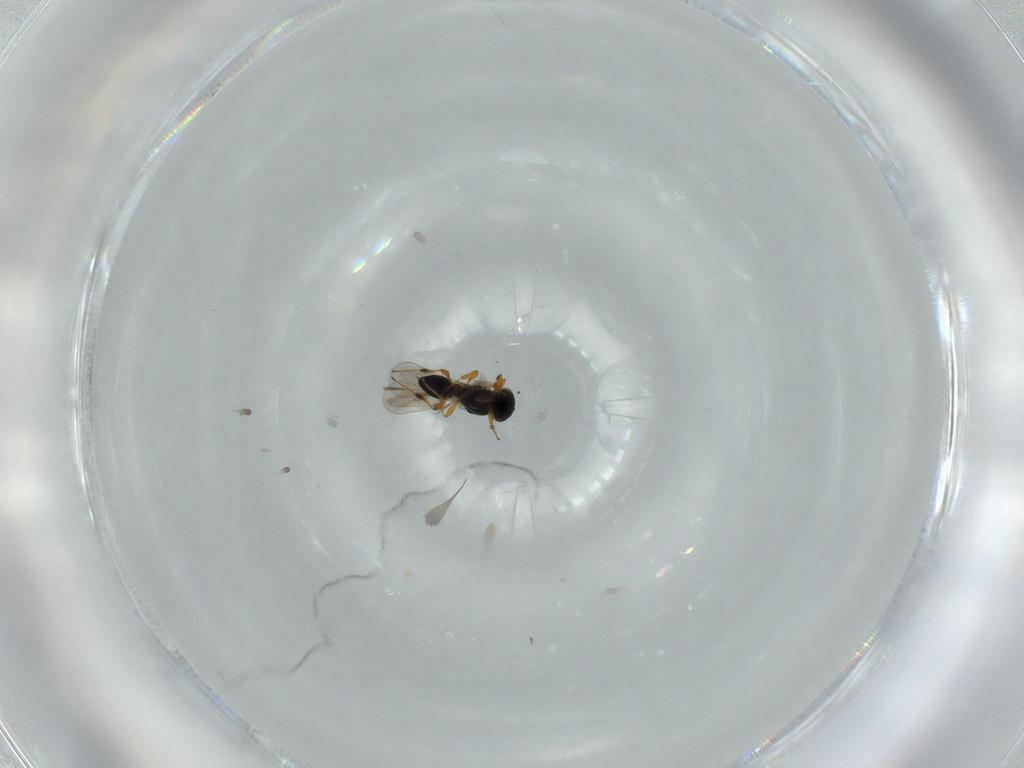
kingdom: Animalia
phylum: Arthropoda
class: Insecta
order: Hymenoptera
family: Platygastridae
